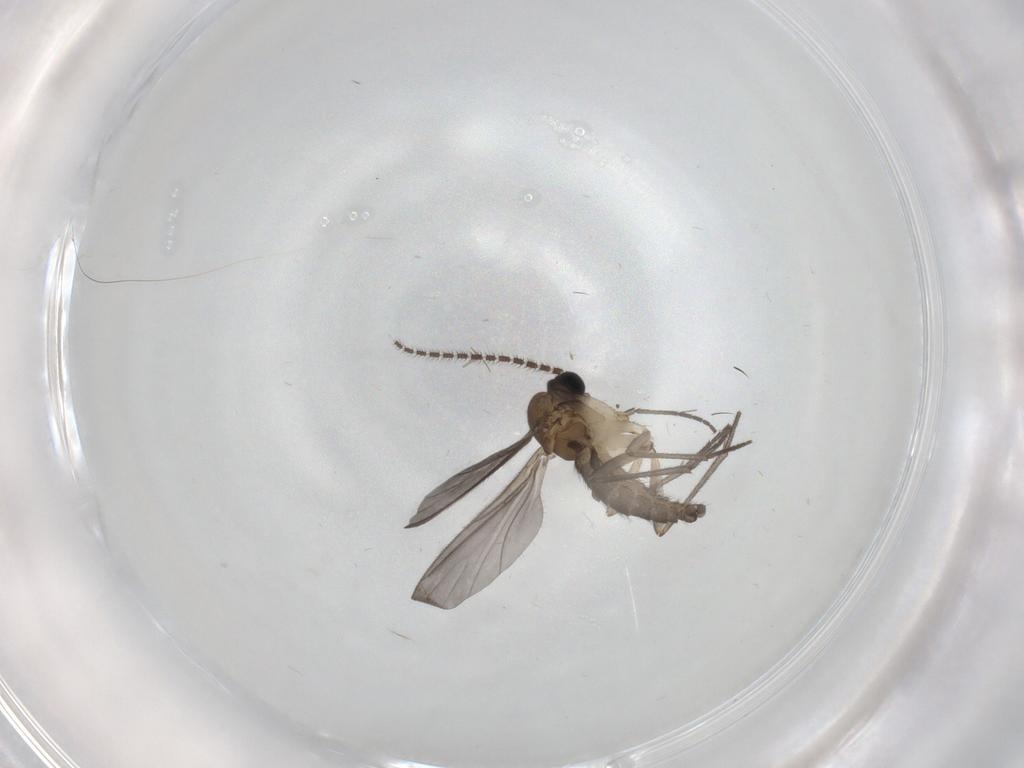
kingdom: Animalia
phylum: Arthropoda
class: Insecta
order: Diptera
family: Sciaridae
